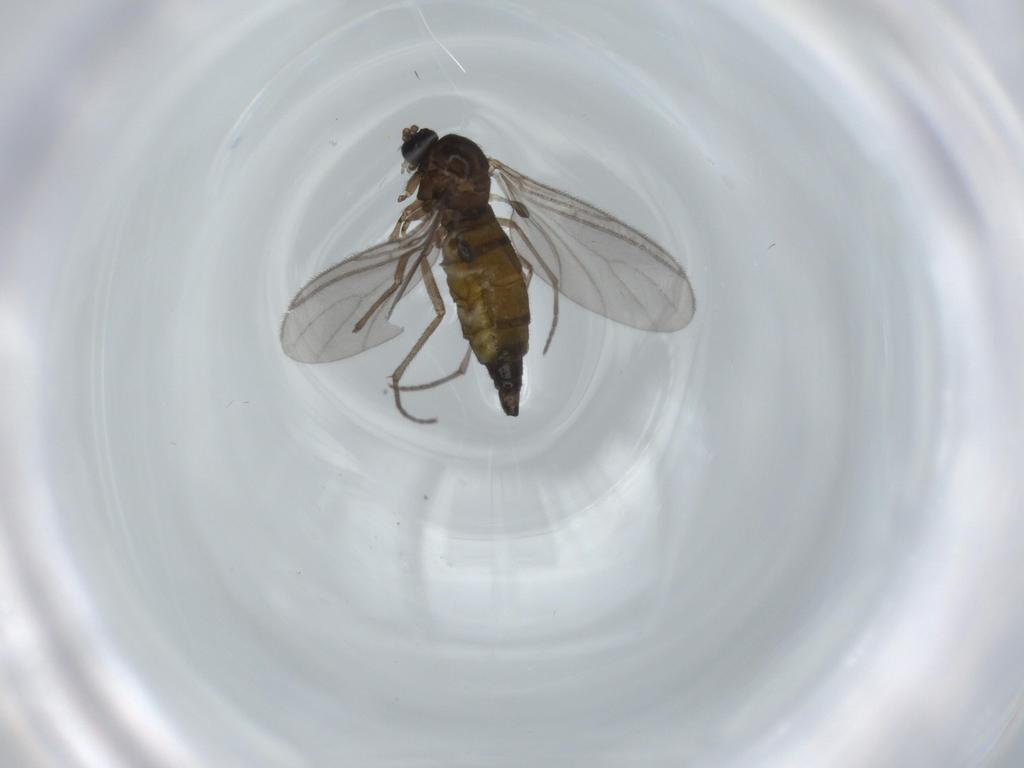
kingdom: Animalia
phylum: Arthropoda
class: Insecta
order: Diptera
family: Sciaridae
